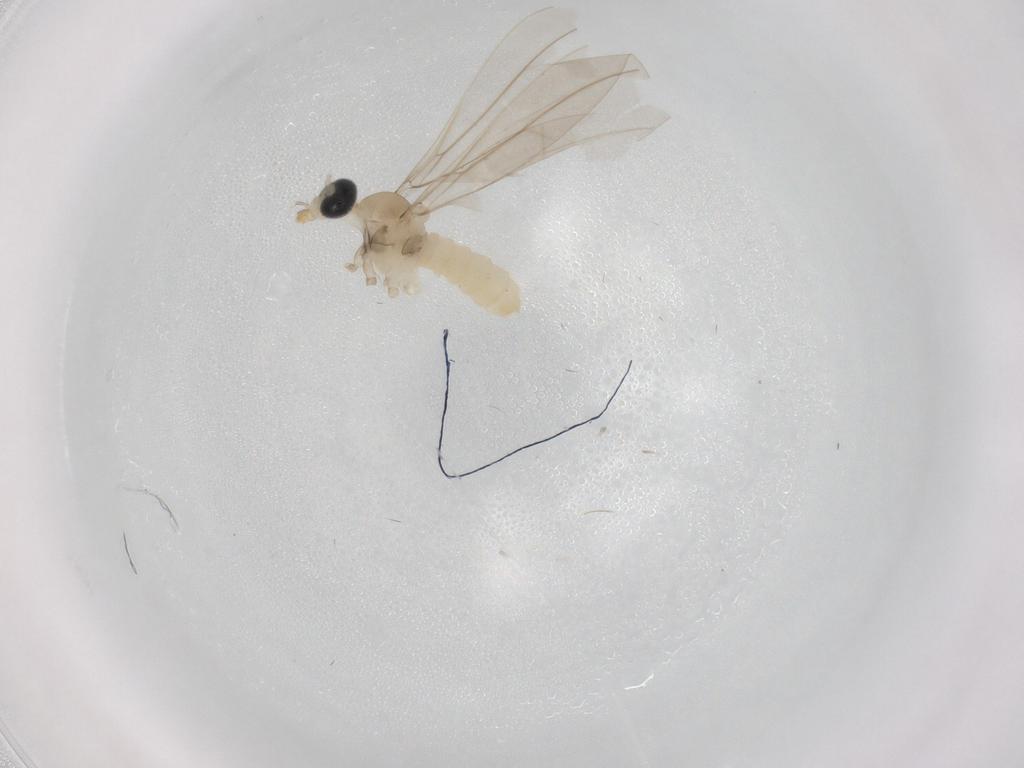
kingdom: Animalia
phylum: Arthropoda
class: Insecta
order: Diptera
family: Cecidomyiidae
